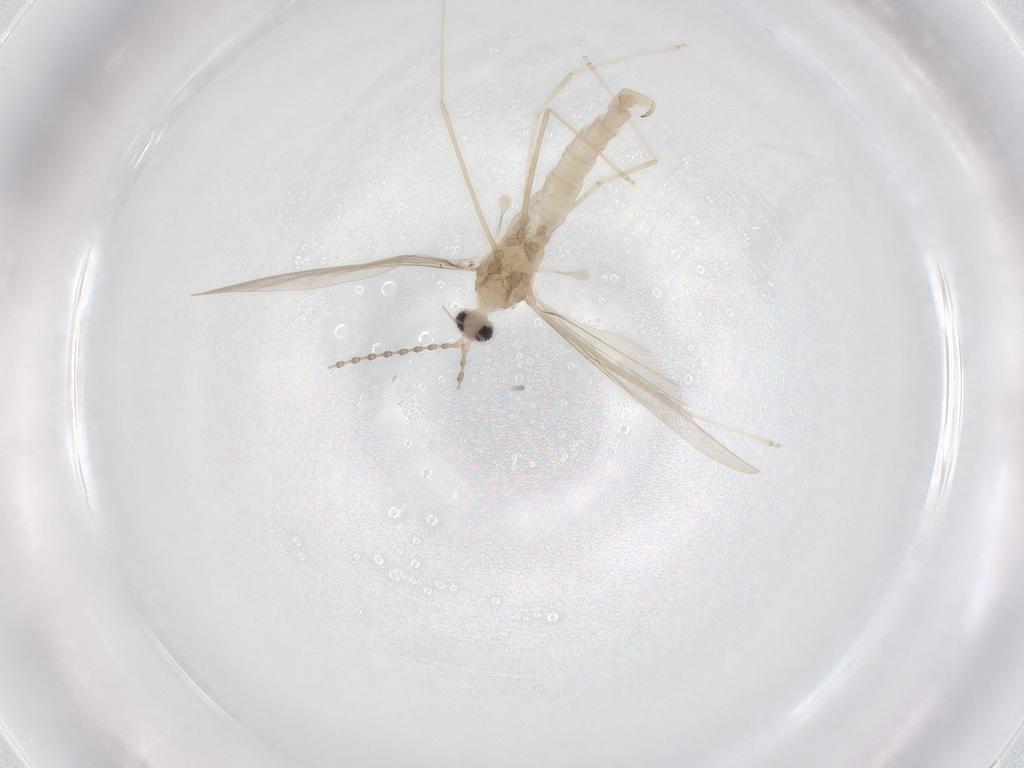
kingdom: Animalia
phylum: Arthropoda
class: Insecta
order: Diptera
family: Cecidomyiidae
